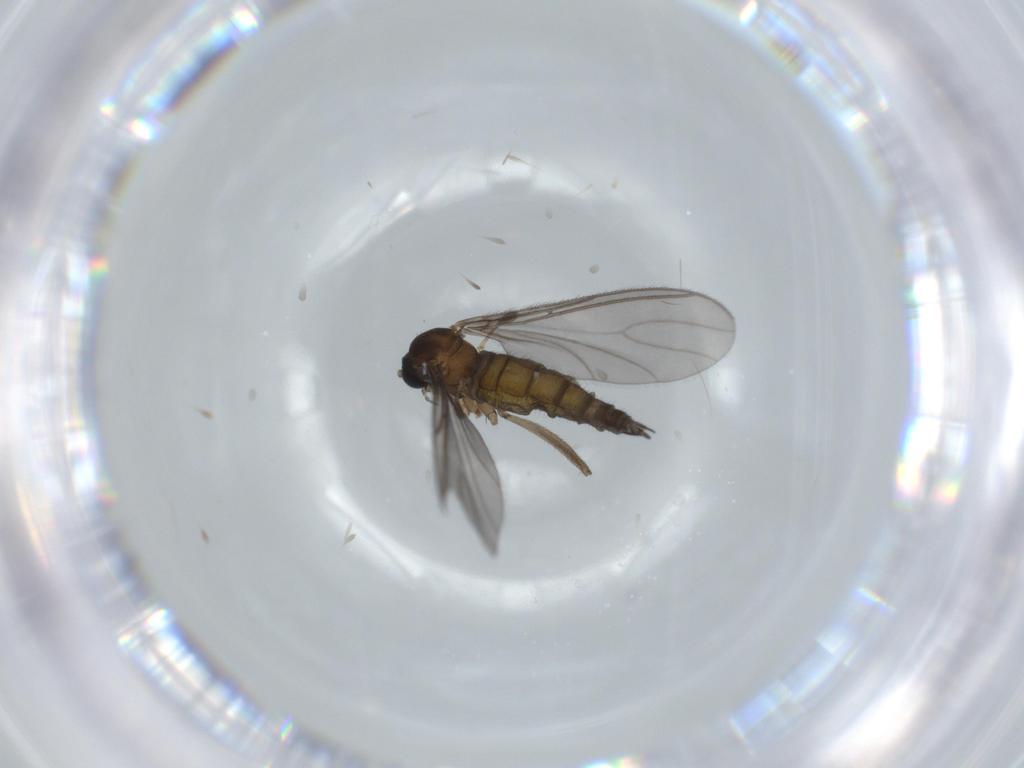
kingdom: Animalia
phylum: Arthropoda
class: Insecta
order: Diptera
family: Sciaridae
